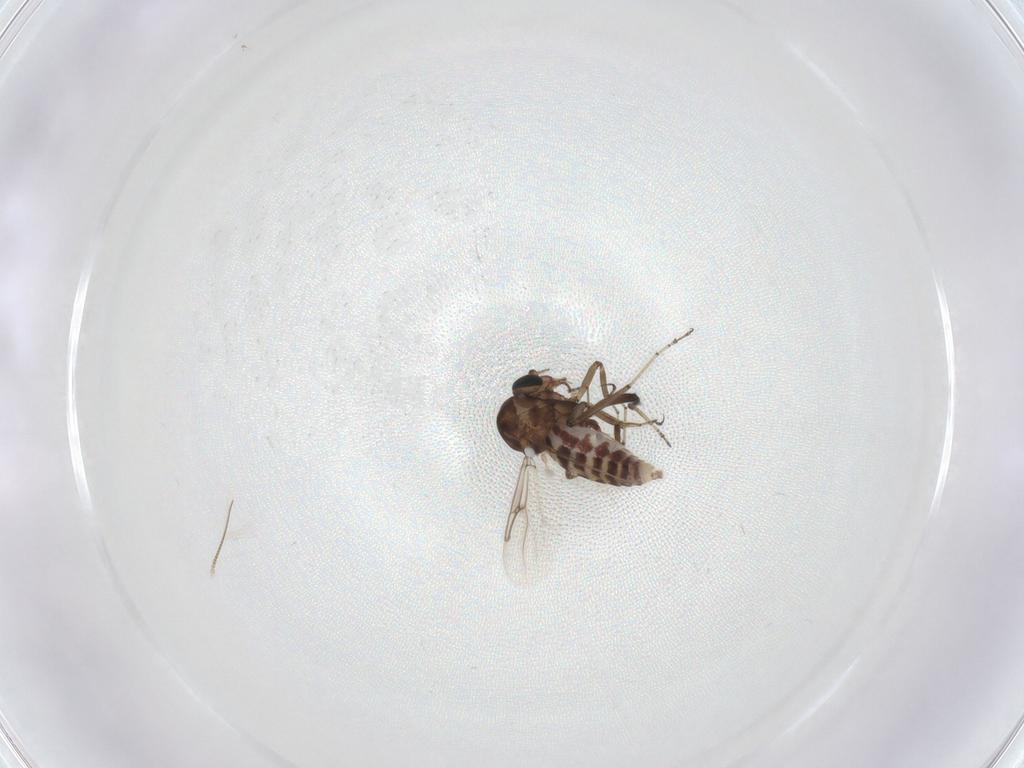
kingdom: Animalia
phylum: Arthropoda
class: Insecta
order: Diptera
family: Ceratopogonidae
